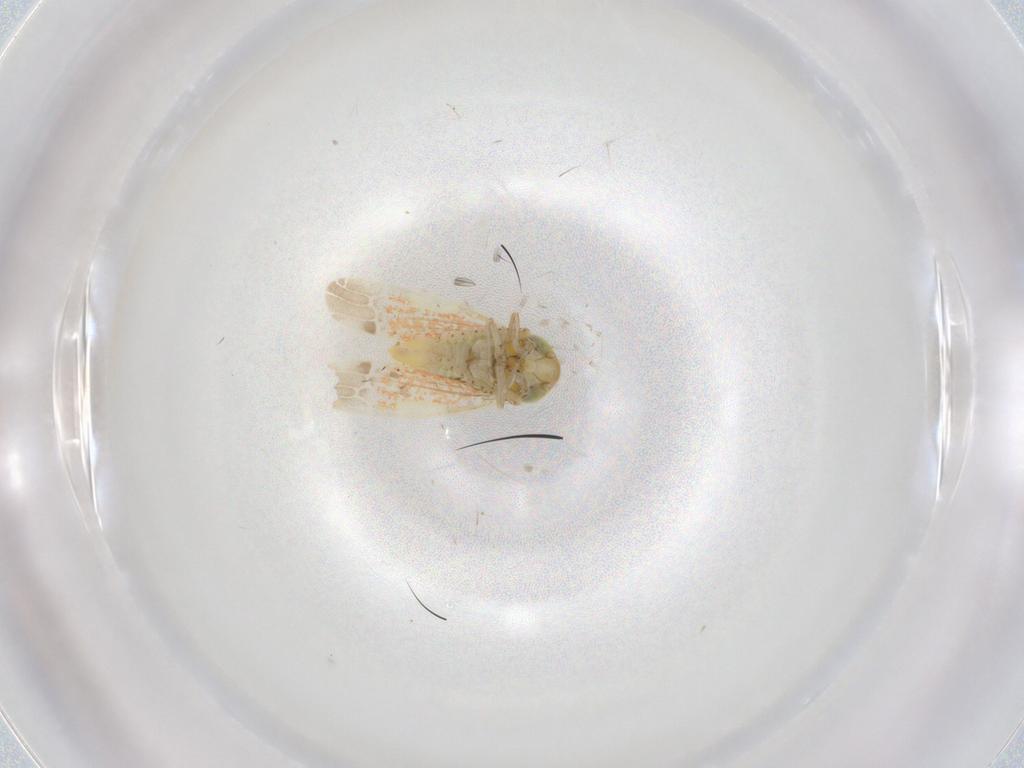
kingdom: Animalia
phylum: Arthropoda
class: Insecta
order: Hemiptera
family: Cicadellidae
